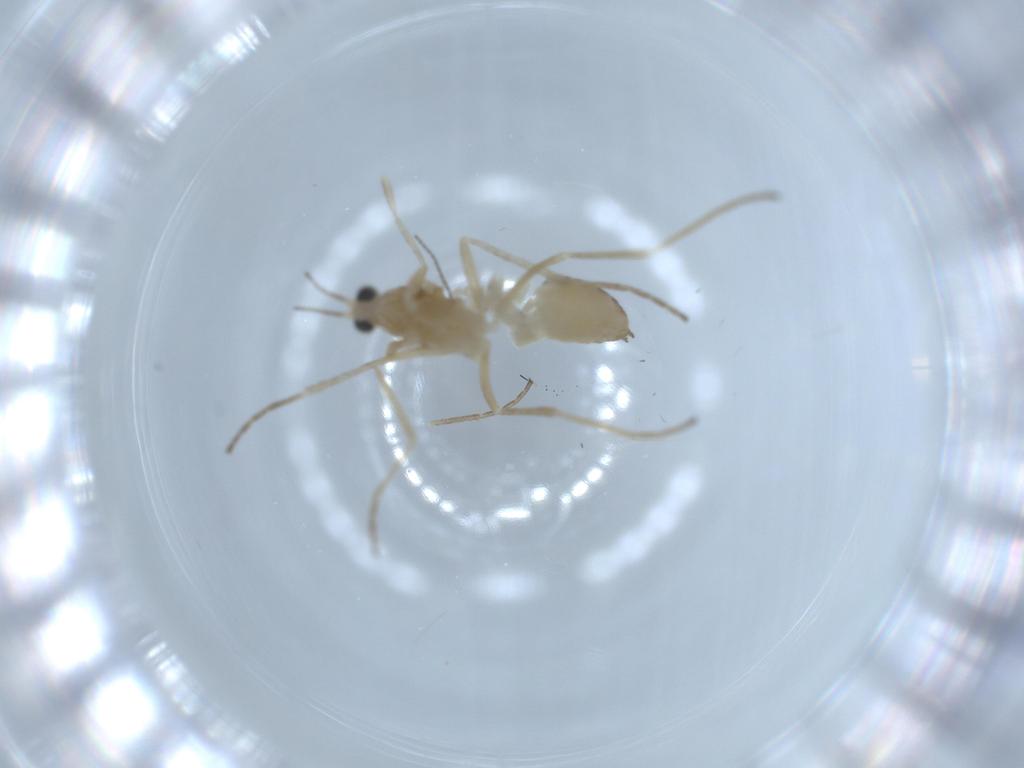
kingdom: Animalia
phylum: Arthropoda
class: Insecta
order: Diptera
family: Cecidomyiidae
